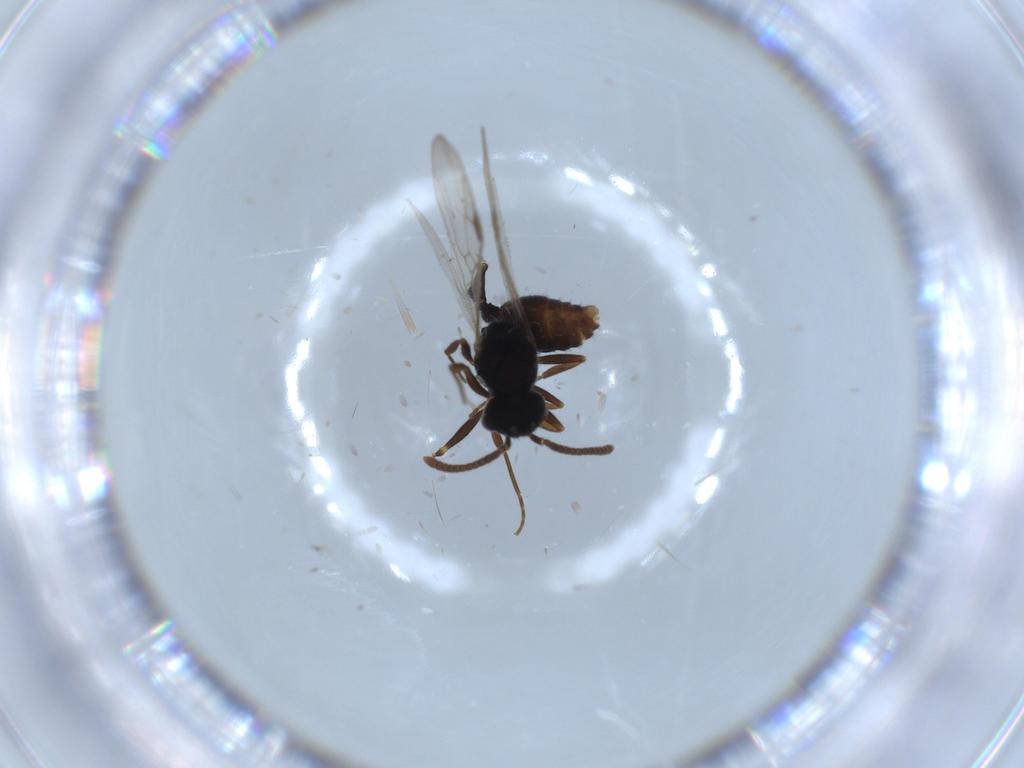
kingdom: Animalia
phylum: Arthropoda
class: Insecta
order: Hymenoptera
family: Formicidae
